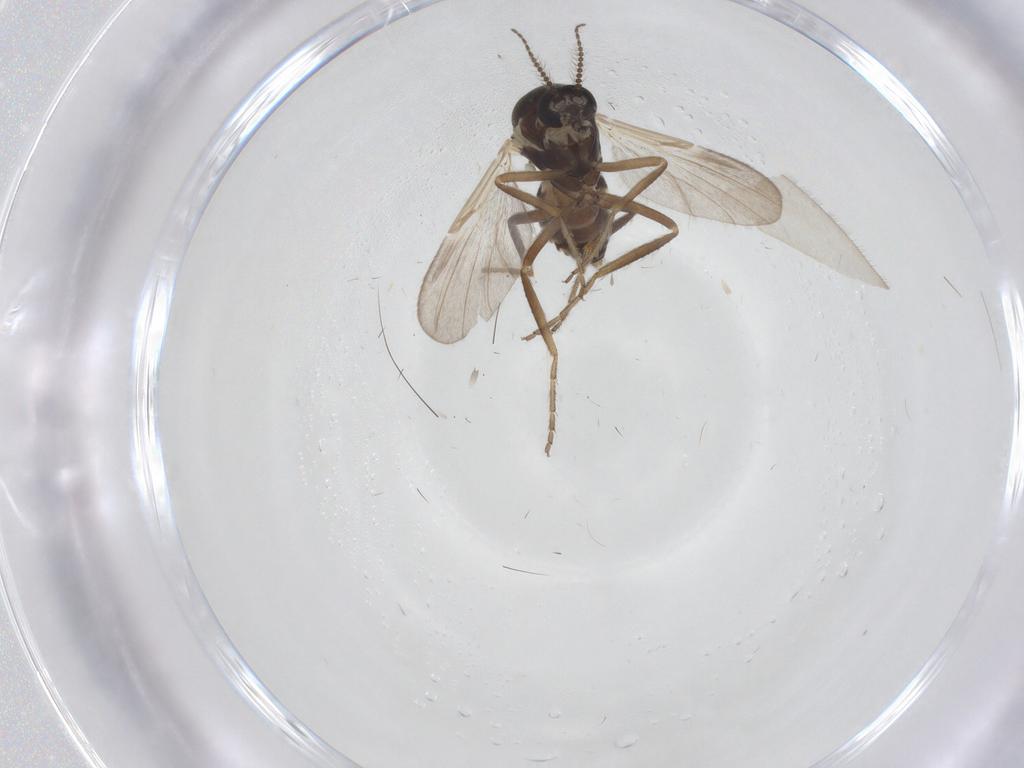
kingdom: Animalia
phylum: Arthropoda
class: Insecta
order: Diptera
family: Ceratopogonidae
